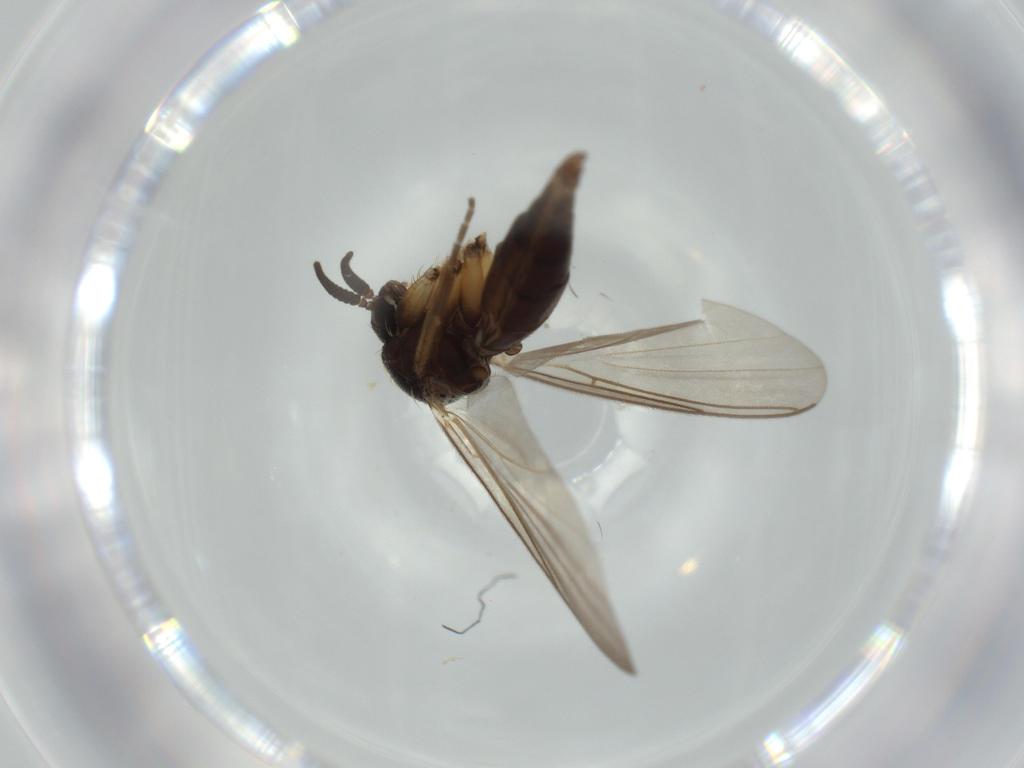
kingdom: Animalia
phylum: Arthropoda
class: Insecta
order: Diptera
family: Mycetophilidae
